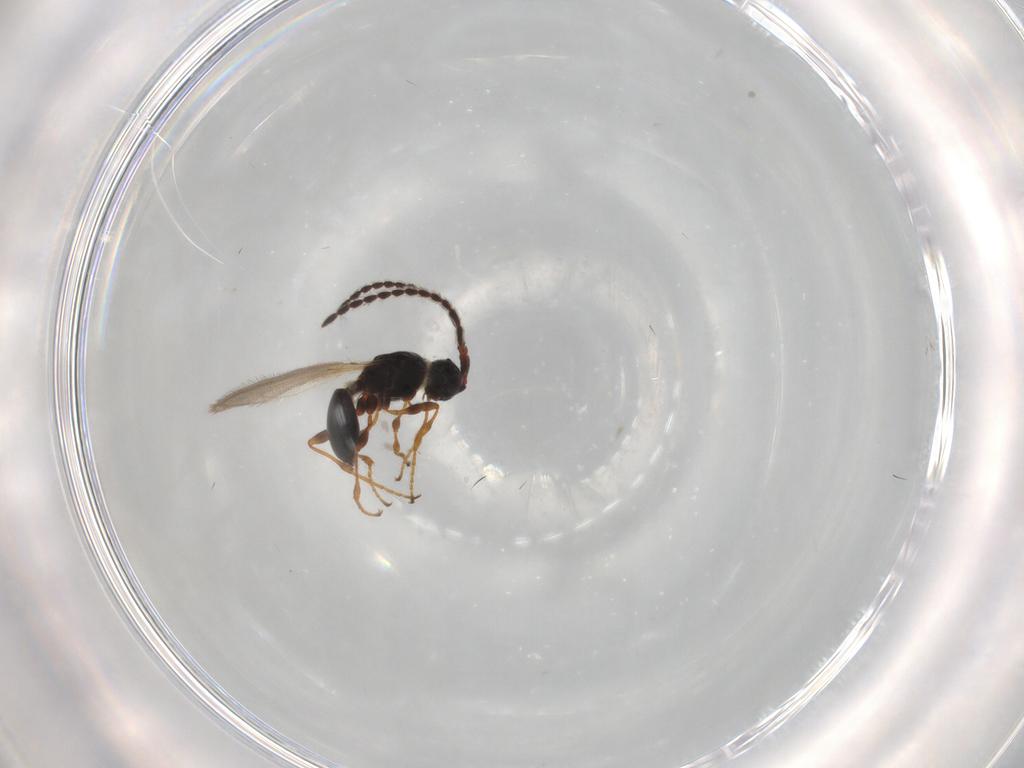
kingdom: Animalia
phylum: Arthropoda
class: Insecta
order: Hymenoptera
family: Diapriidae
